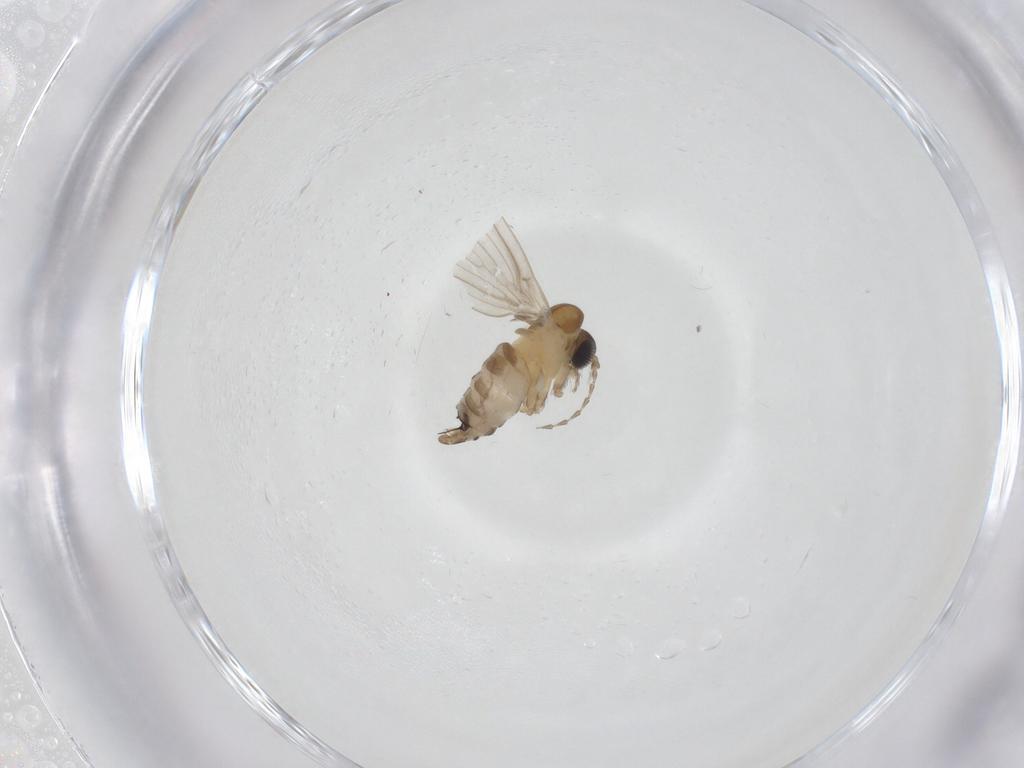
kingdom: Animalia
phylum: Arthropoda
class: Insecta
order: Diptera
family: Psychodidae
